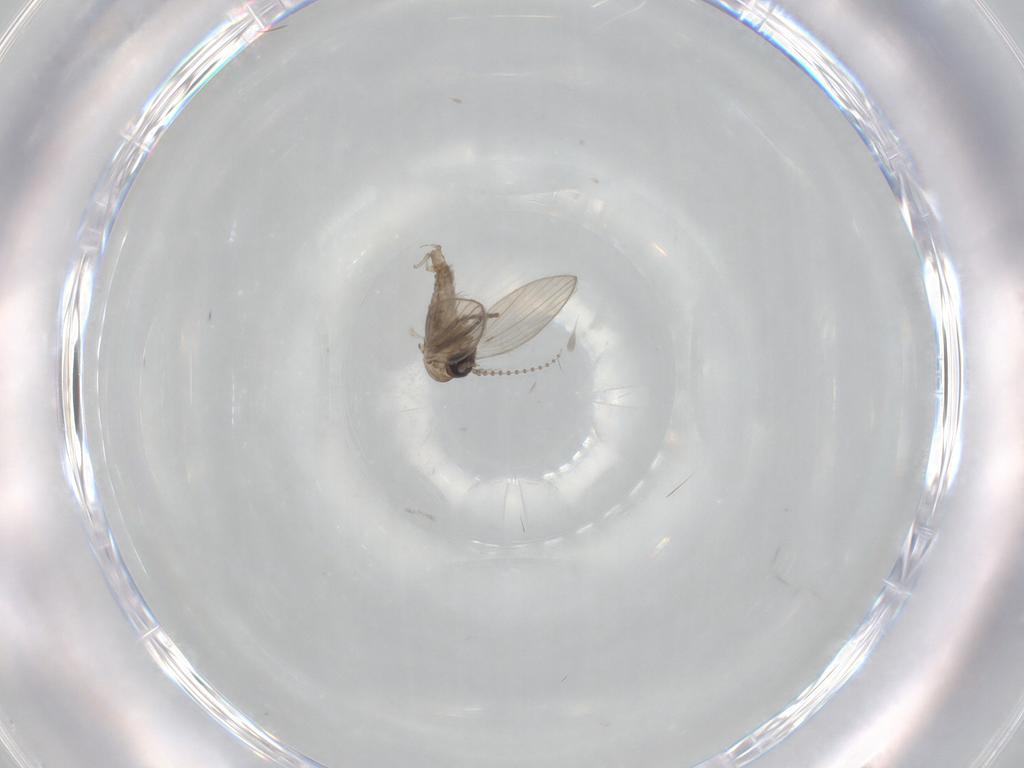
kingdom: Animalia
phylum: Arthropoda
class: Insecta
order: Diptera
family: Psychodidae
